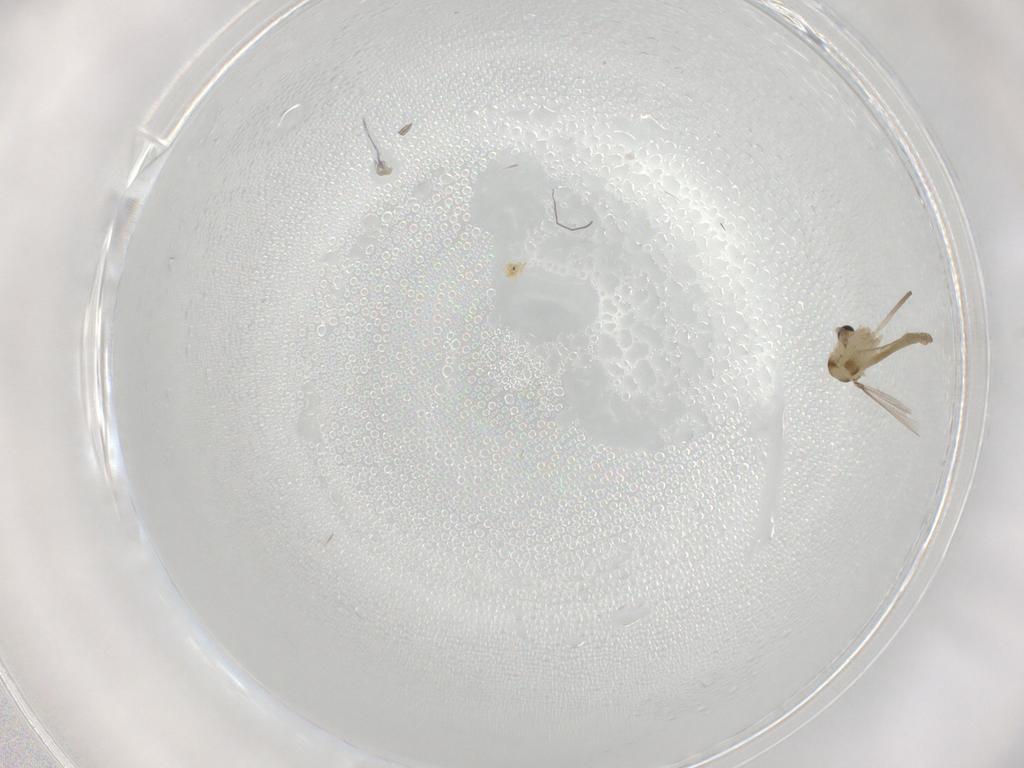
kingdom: Animalia
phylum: Arthropoda
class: Insecta
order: Diptera
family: Chironomidae
